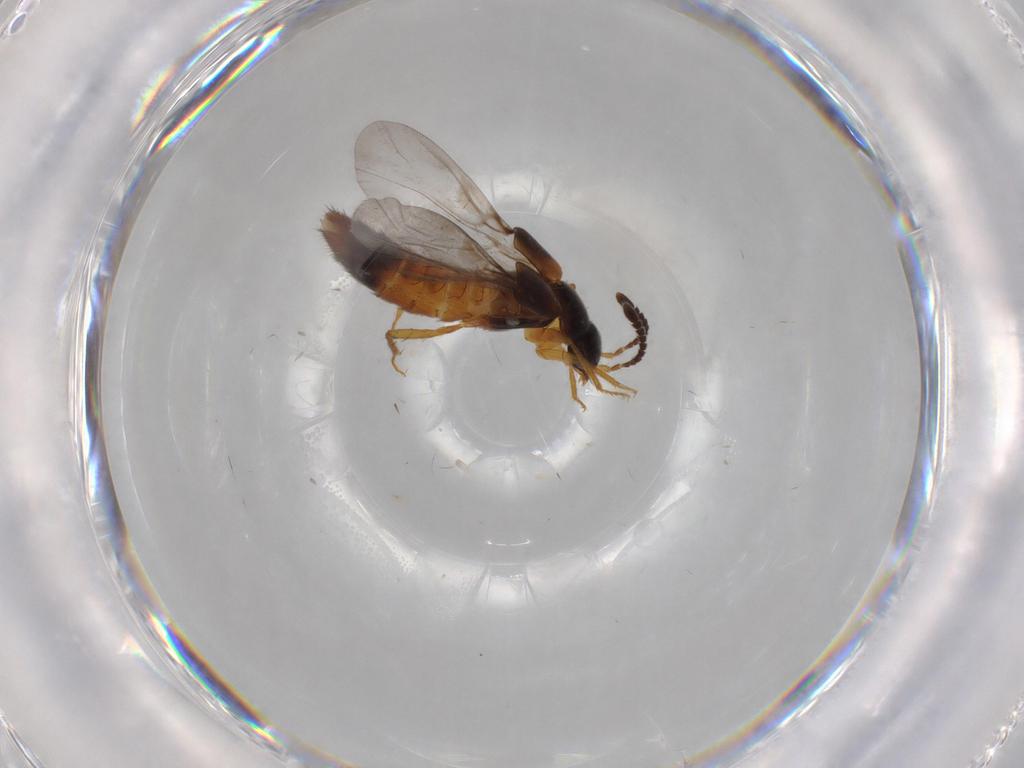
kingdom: Animalia
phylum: Arthropoda
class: Insecta
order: Coleoptera
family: Staphylinidae
